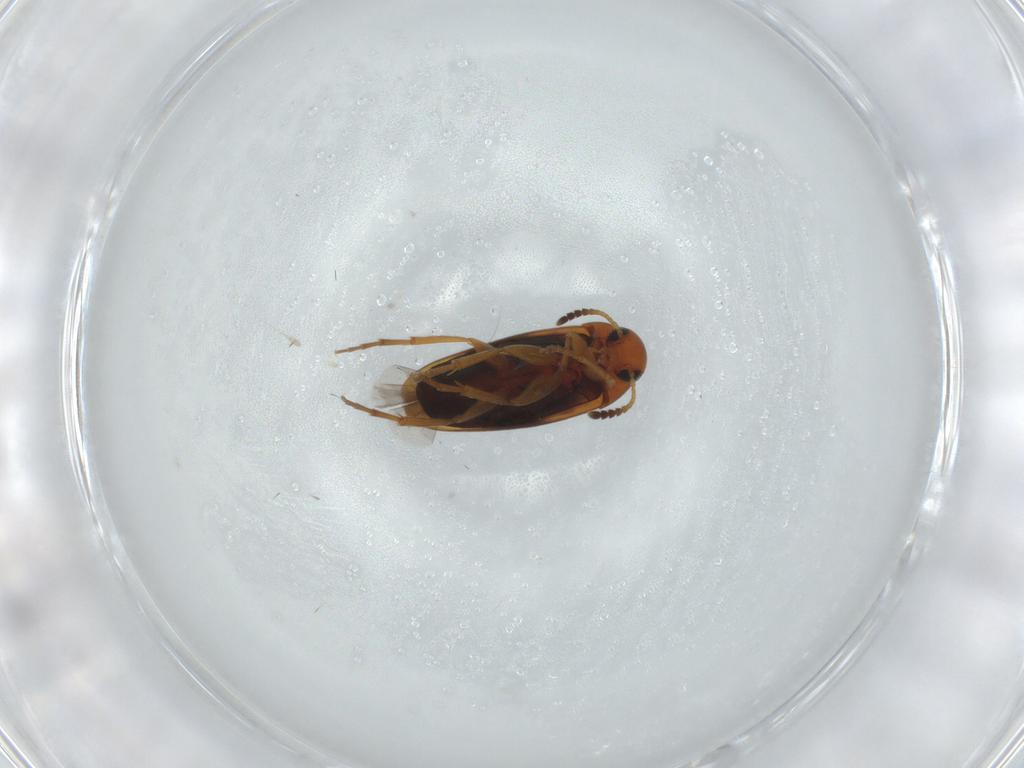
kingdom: Animalia
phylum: Arthropoda
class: Insecta
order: Coleoptera
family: Scraptiidae
